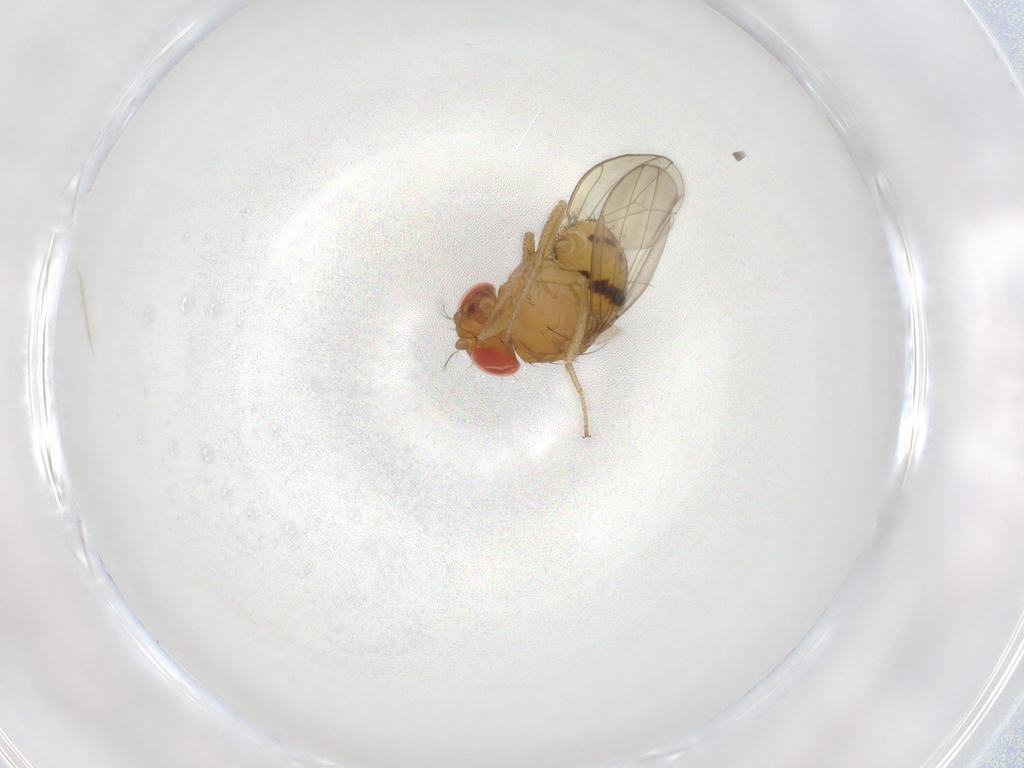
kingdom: Animalia
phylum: Arthropoda
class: Insecta
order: Diptera
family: Drosophilidae
